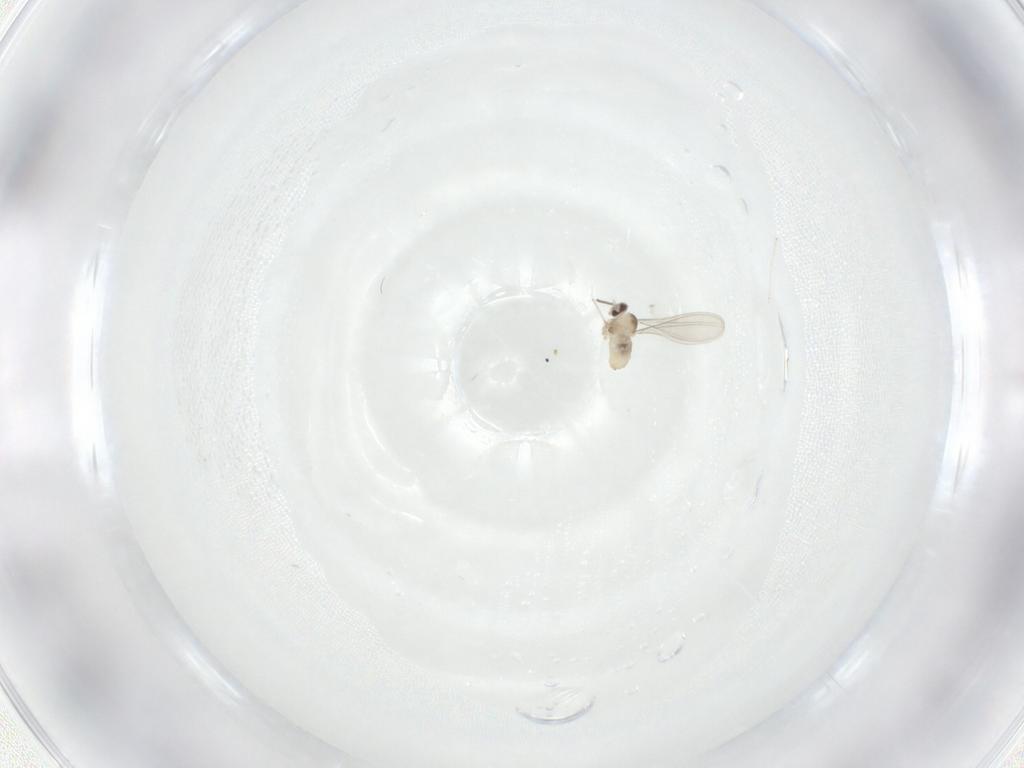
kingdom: Animalia
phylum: Arthropoda
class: Insecta
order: Diptera
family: Cecidomyiidae
